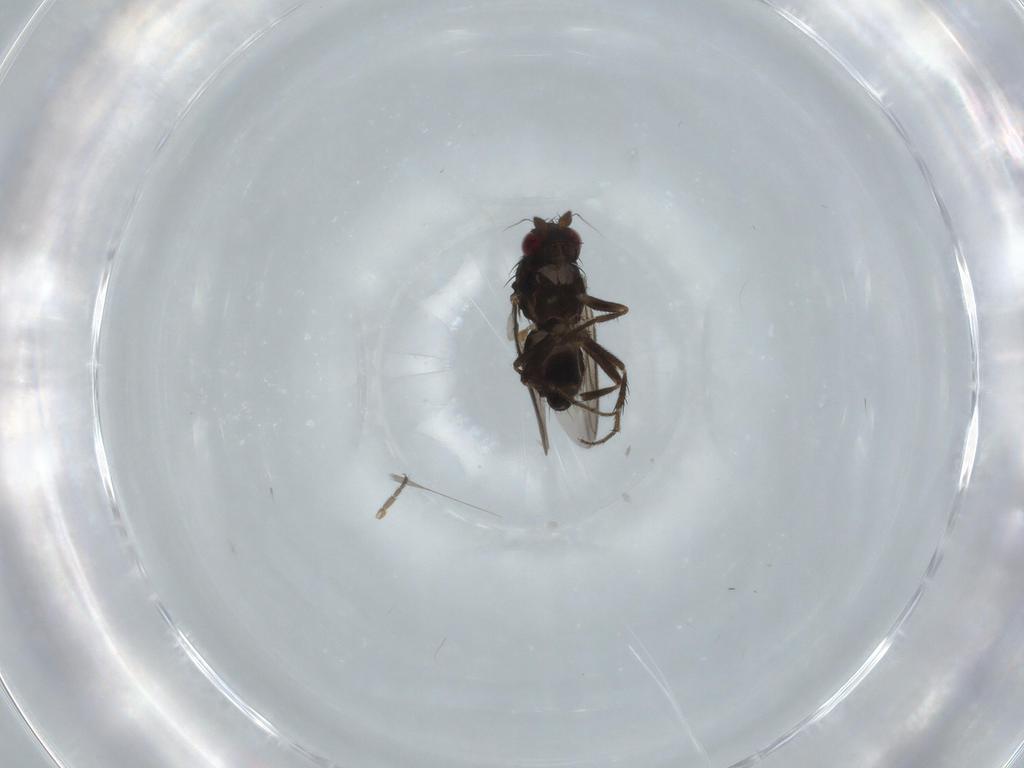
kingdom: Animalia
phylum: Arthropoda
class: Insecta
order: Diptera
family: Sphaeroceridae
